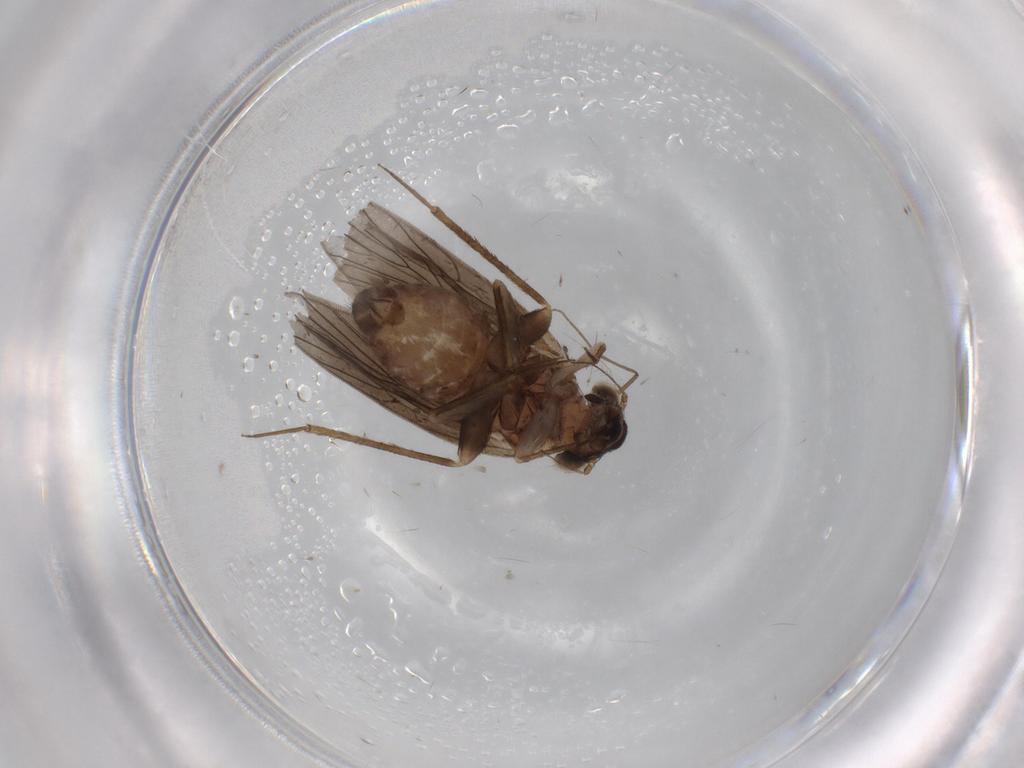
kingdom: Animalia
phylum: Arthropoda
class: Insecta
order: Psocodea
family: Lepidopsocidae
